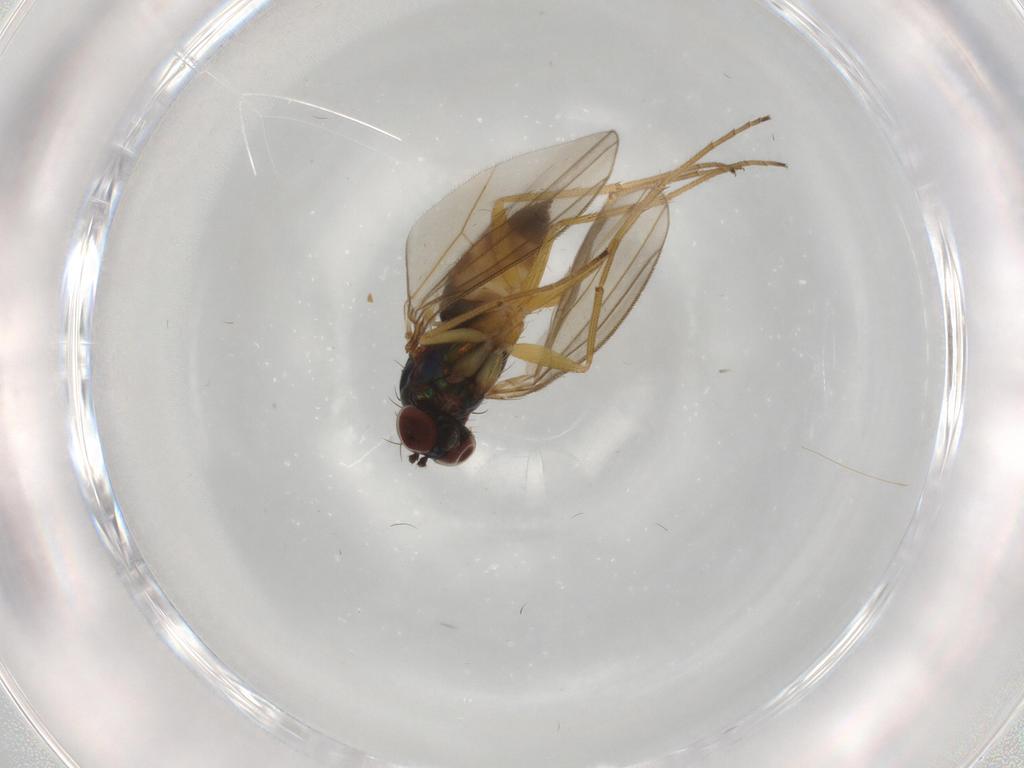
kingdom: Animalia
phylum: Arthropoda
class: Insecta
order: Diptera
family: Dolichopodidae
